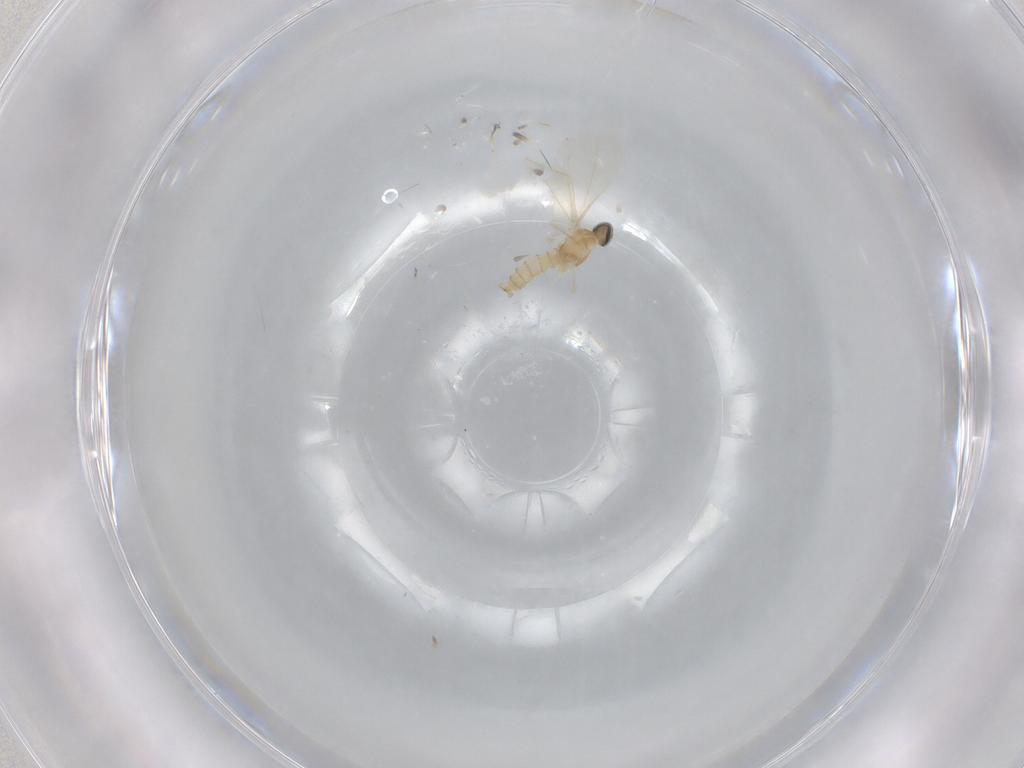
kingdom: Animalia
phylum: Arthropoda
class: Insecta
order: Diptera
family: Cecidomyiidae
